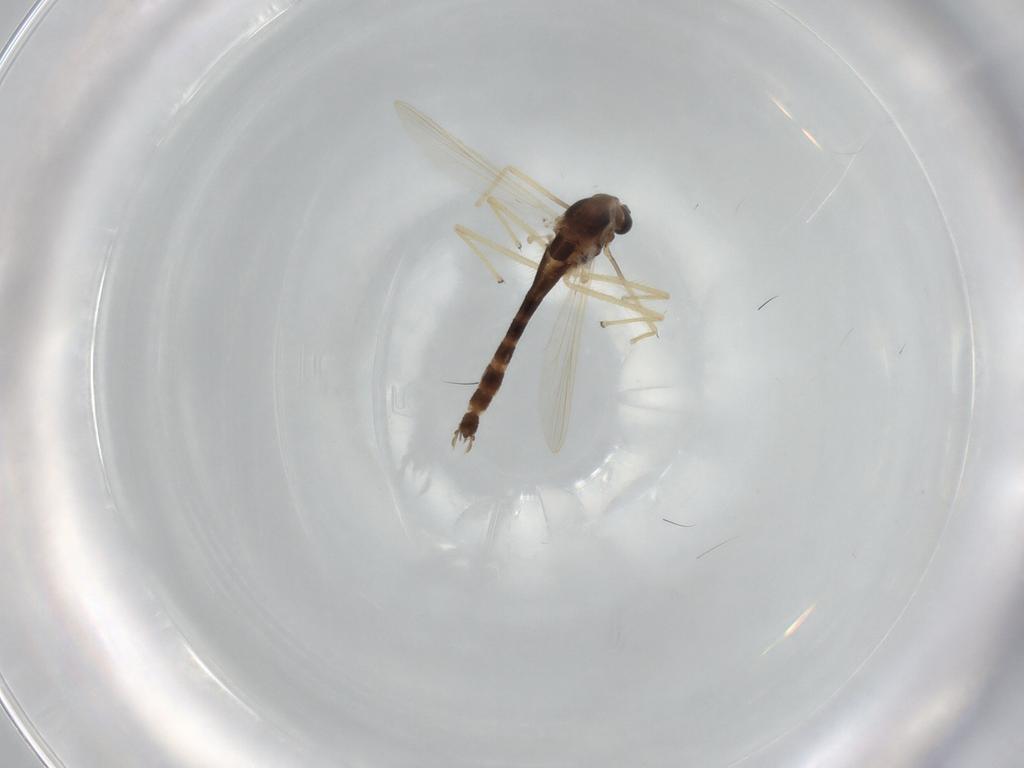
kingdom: Animalia
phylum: Arthropoda
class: Insecta
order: Diptera
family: Chironomidae
